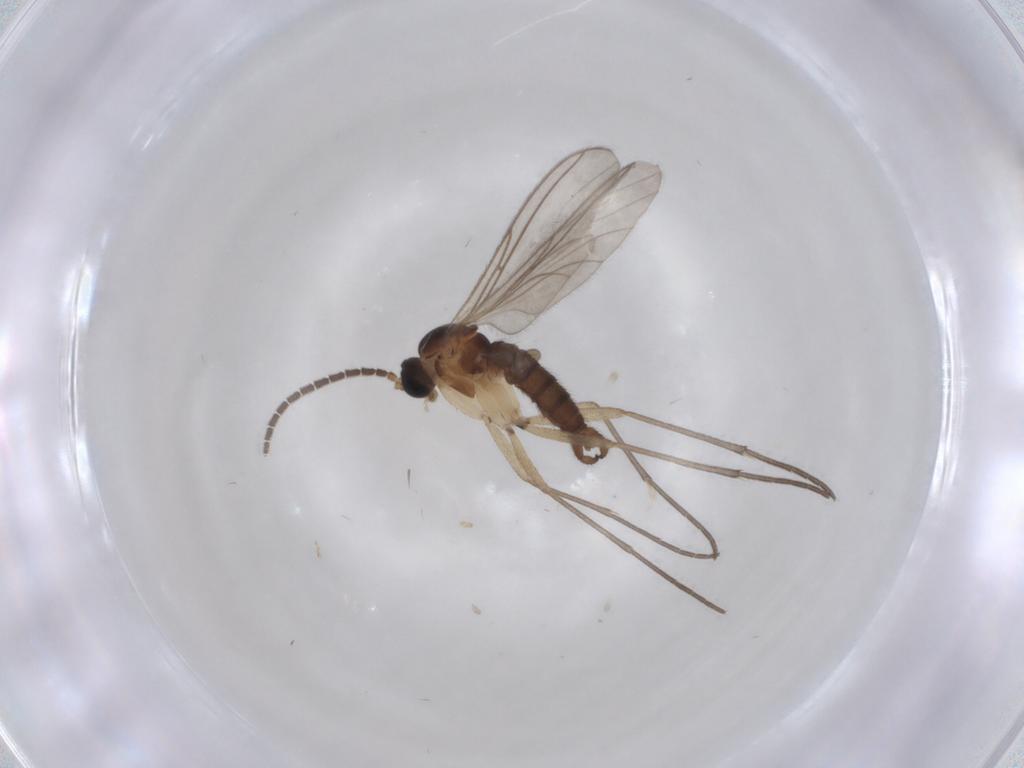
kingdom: Animalia
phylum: Arthropoda
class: Insecta
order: Diptera
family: Sciaridae
